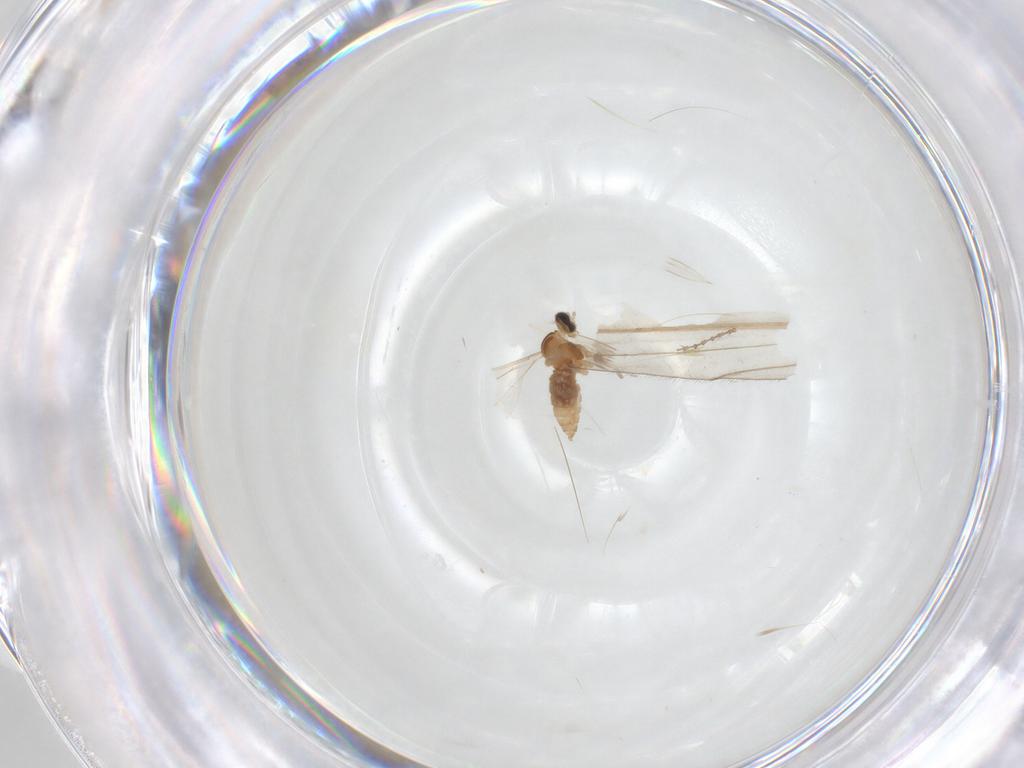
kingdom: Animalia
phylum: Arthropoda
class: Insecta
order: Diptera
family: Cecidomyiidae
